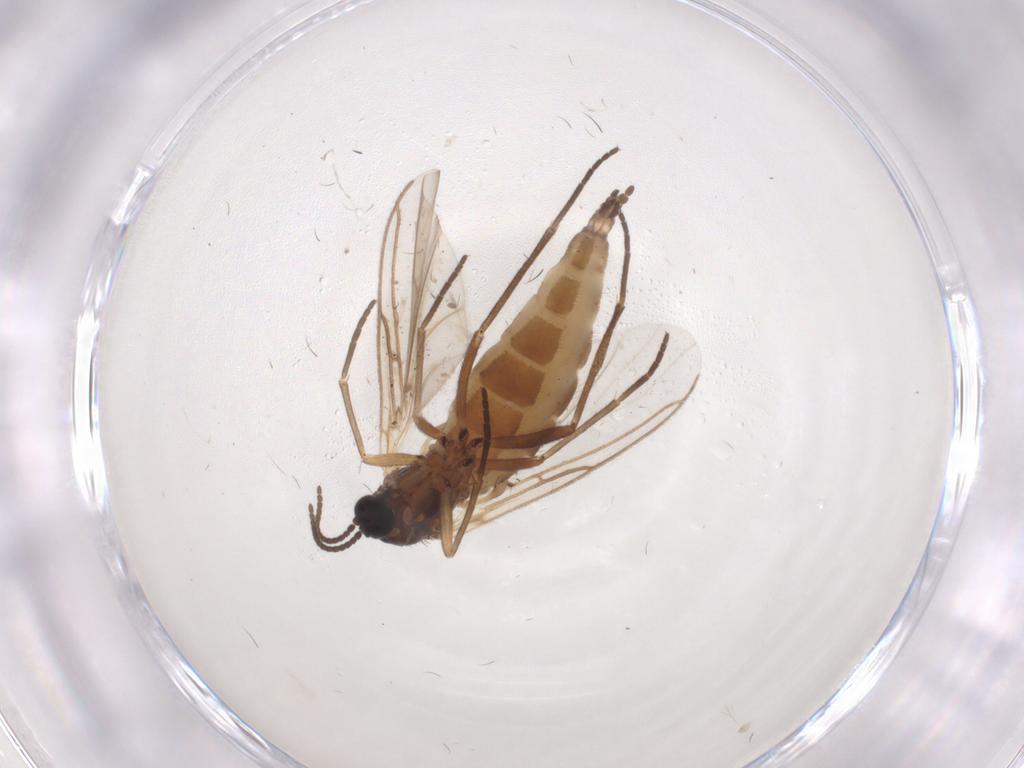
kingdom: Animalia
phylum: Arthropoda
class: Insecta
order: Diptera
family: Sciaridae
